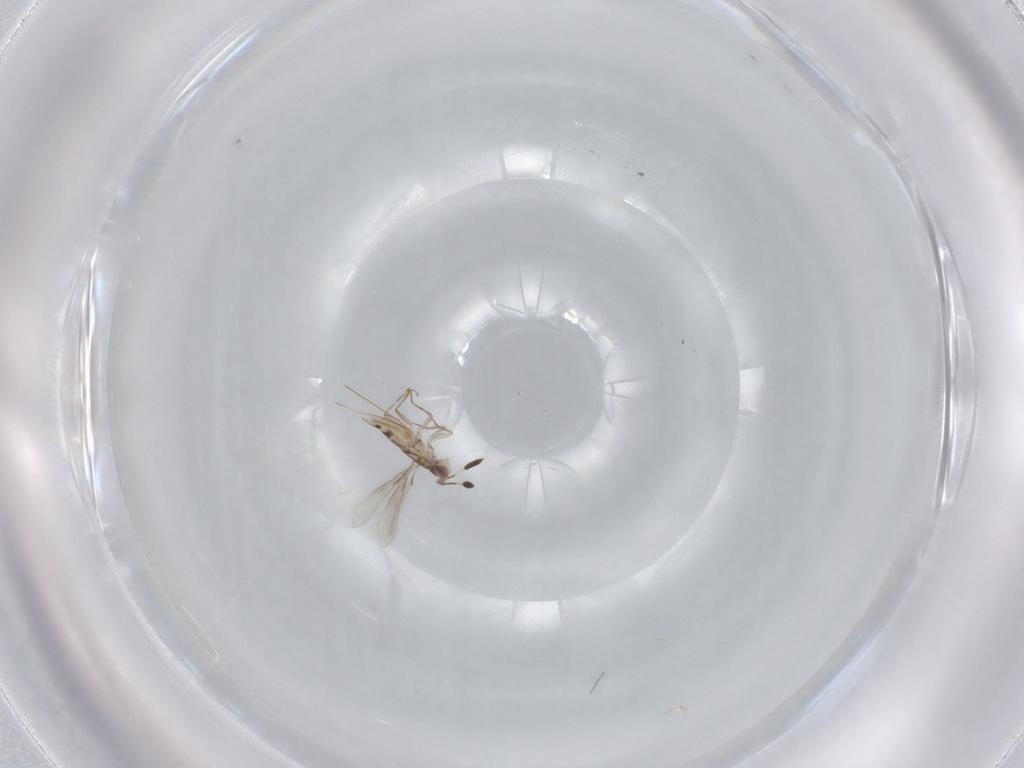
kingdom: Animalia
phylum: Arthropoda
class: Insecta
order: Hymenoptera
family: Mymaridae
